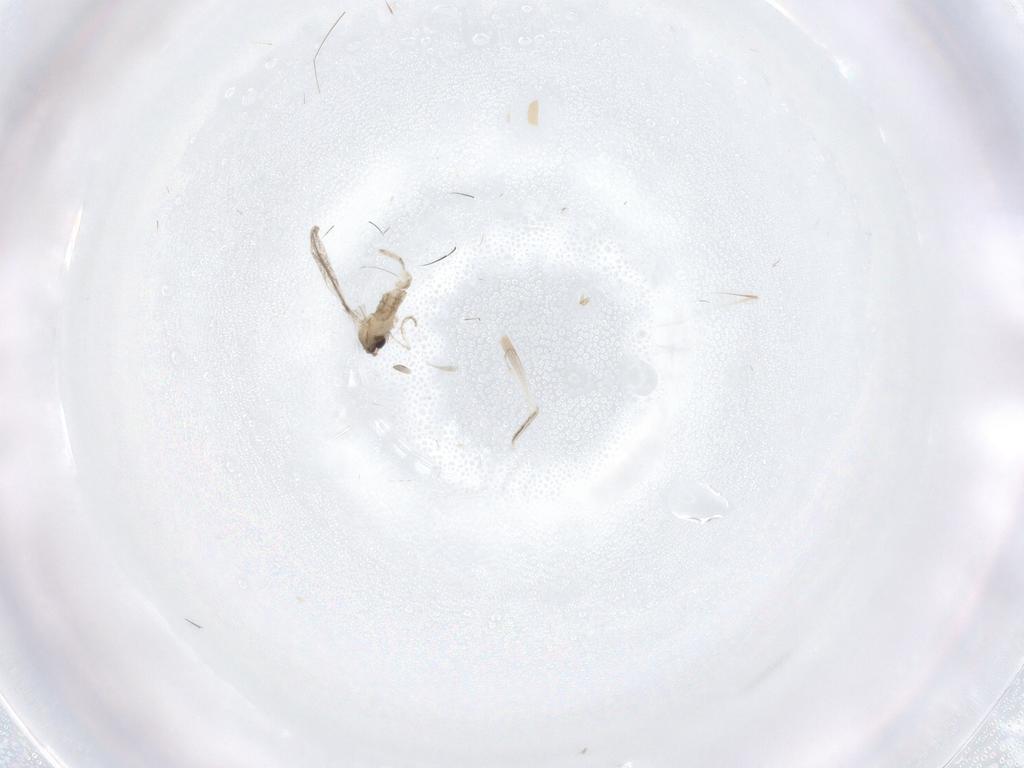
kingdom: Animalia
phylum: Arthropoda
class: Insecta
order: Diptera
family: Cecidomyiidae
